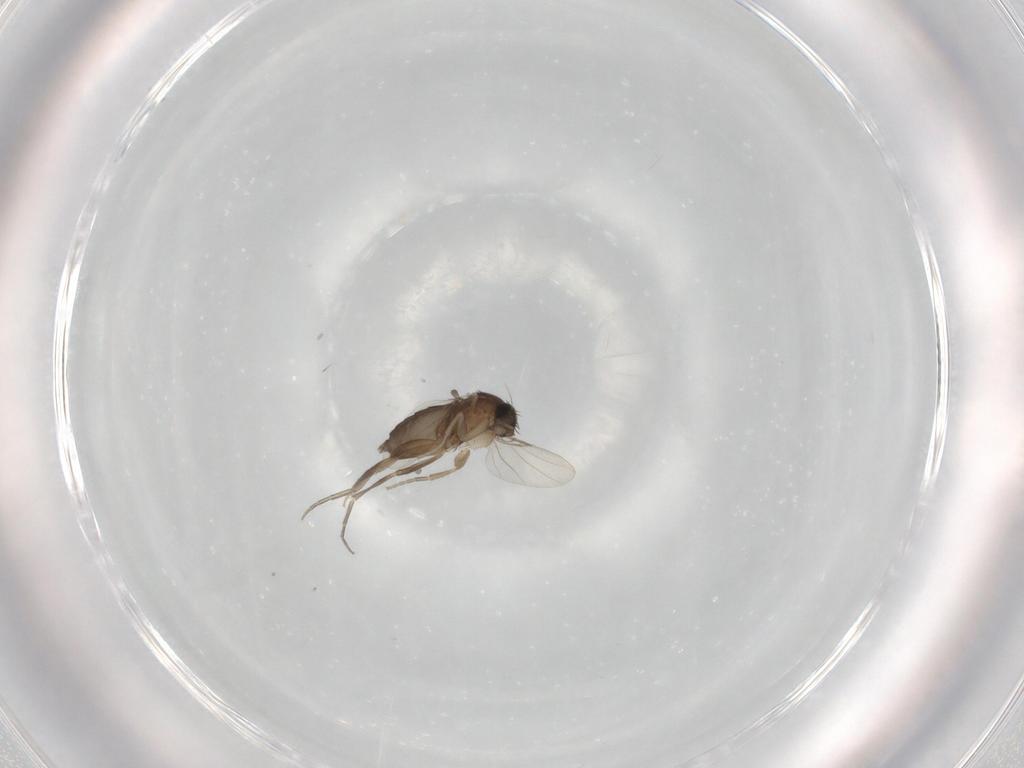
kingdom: Animalia
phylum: Arthropoda
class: Insecta
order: Diptera
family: Phoridae
